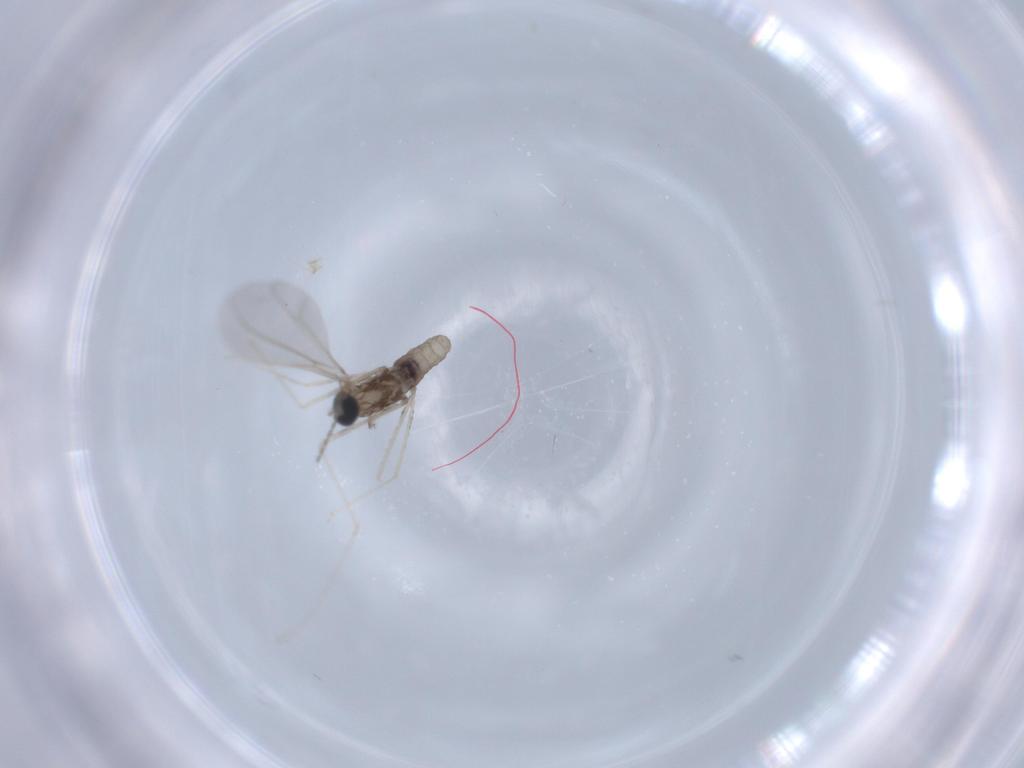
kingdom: Animalia
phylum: Arthropoda
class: Insecta
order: Diptera
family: Cecidomyiidae
